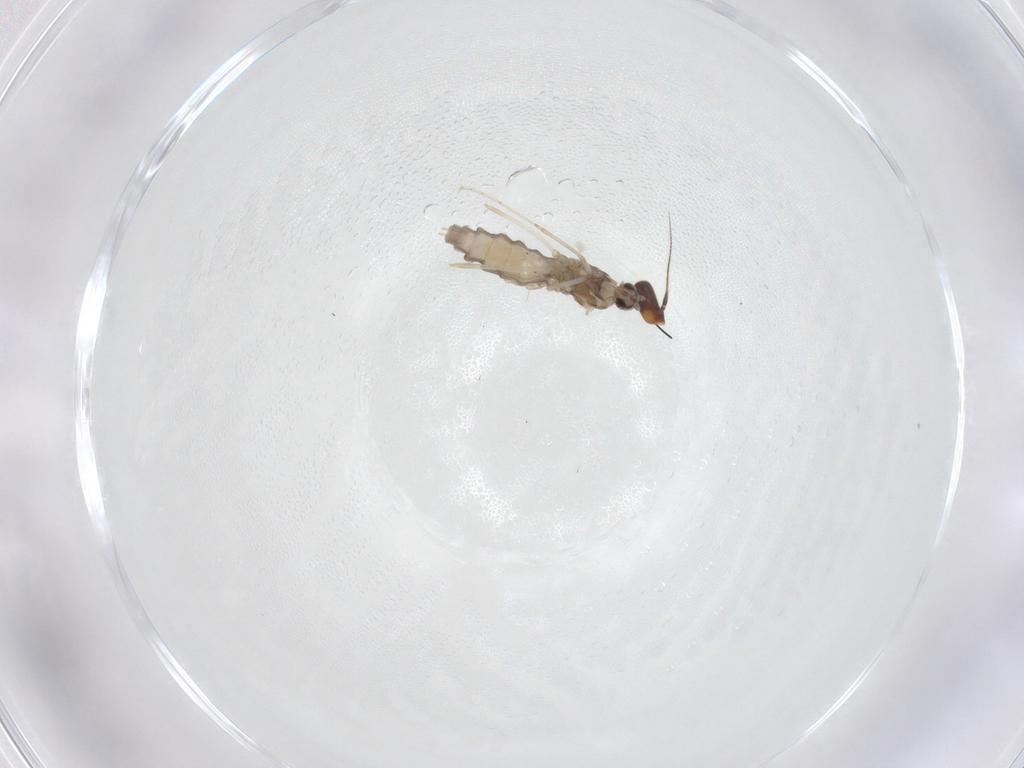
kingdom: Animalia
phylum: Arthropoda
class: Insecta
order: Diptera
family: Anthomyiidae
